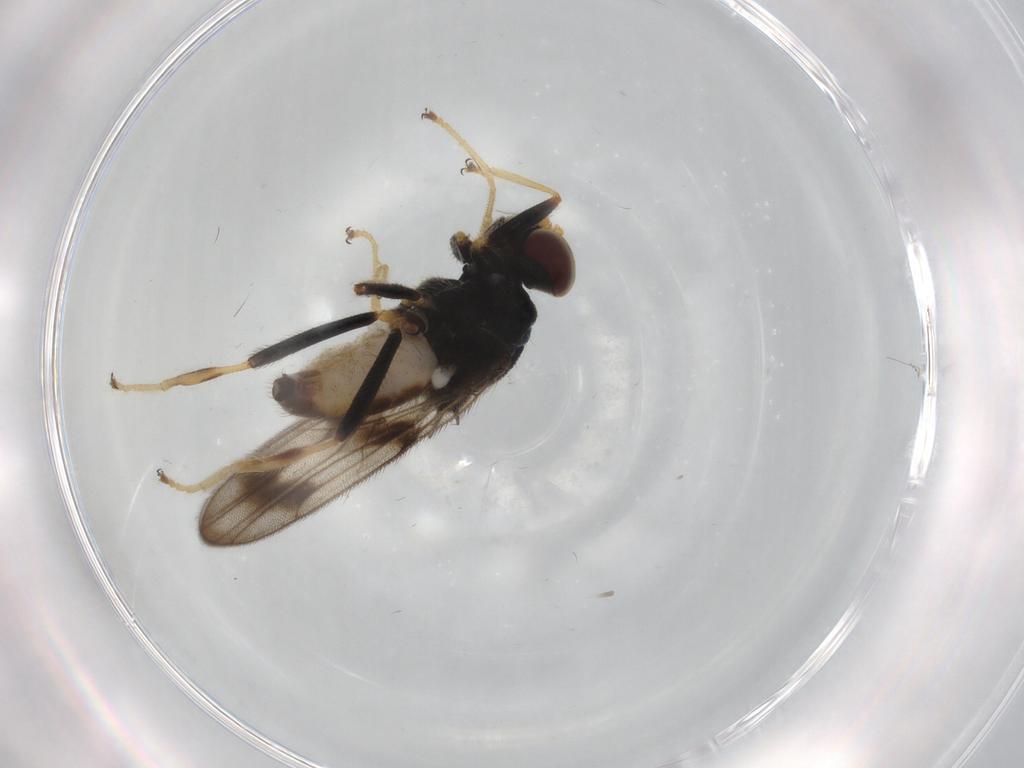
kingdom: Animalia
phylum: Arthropoda
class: Insecta
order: Diptera
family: Chloropidae
